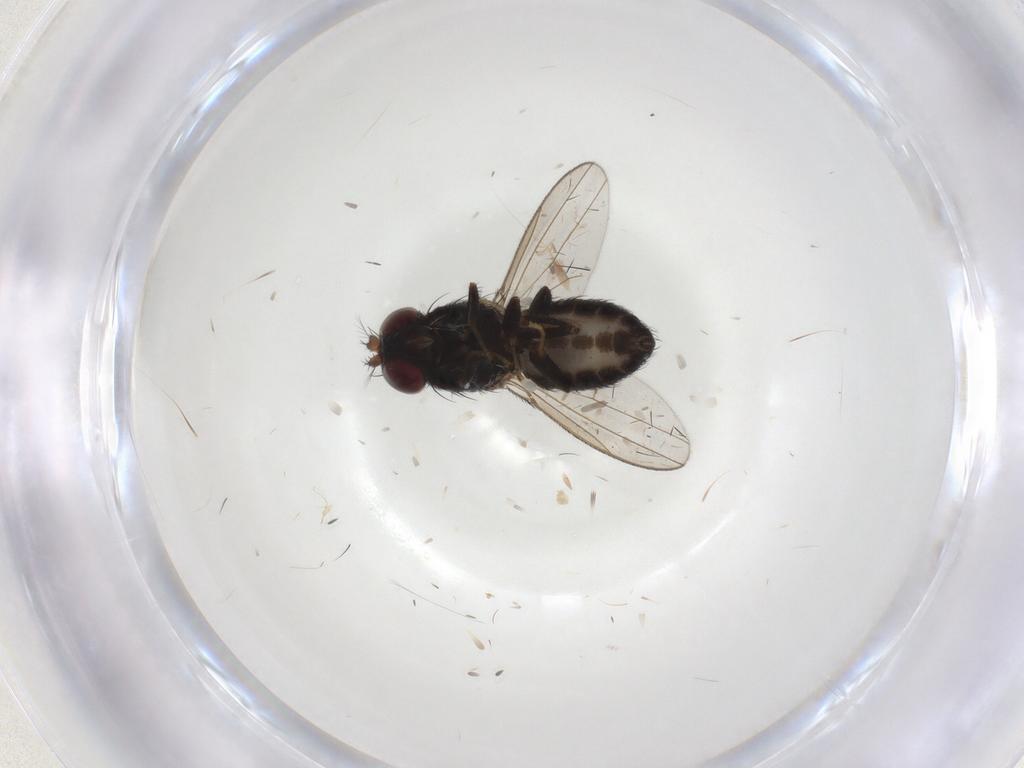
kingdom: Animalia
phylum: Arthropoda
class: Insecta
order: Diptera
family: Ephydridae
